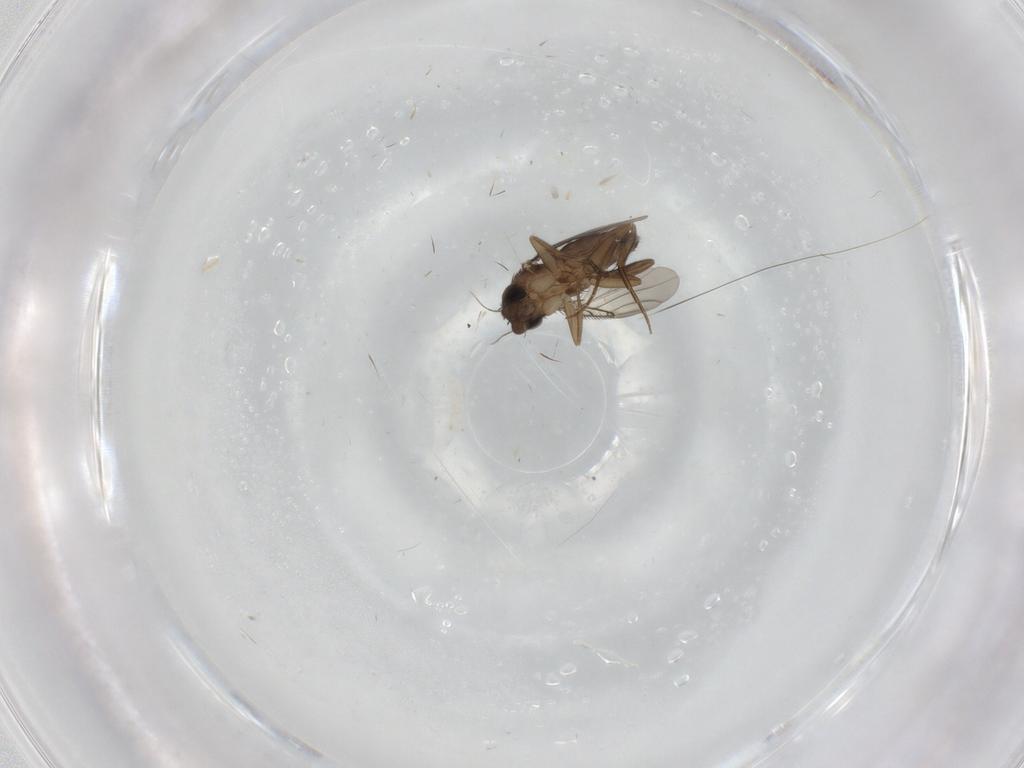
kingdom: Animalia
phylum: Arthropoda
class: Insecta
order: Diptera
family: Phoridae
